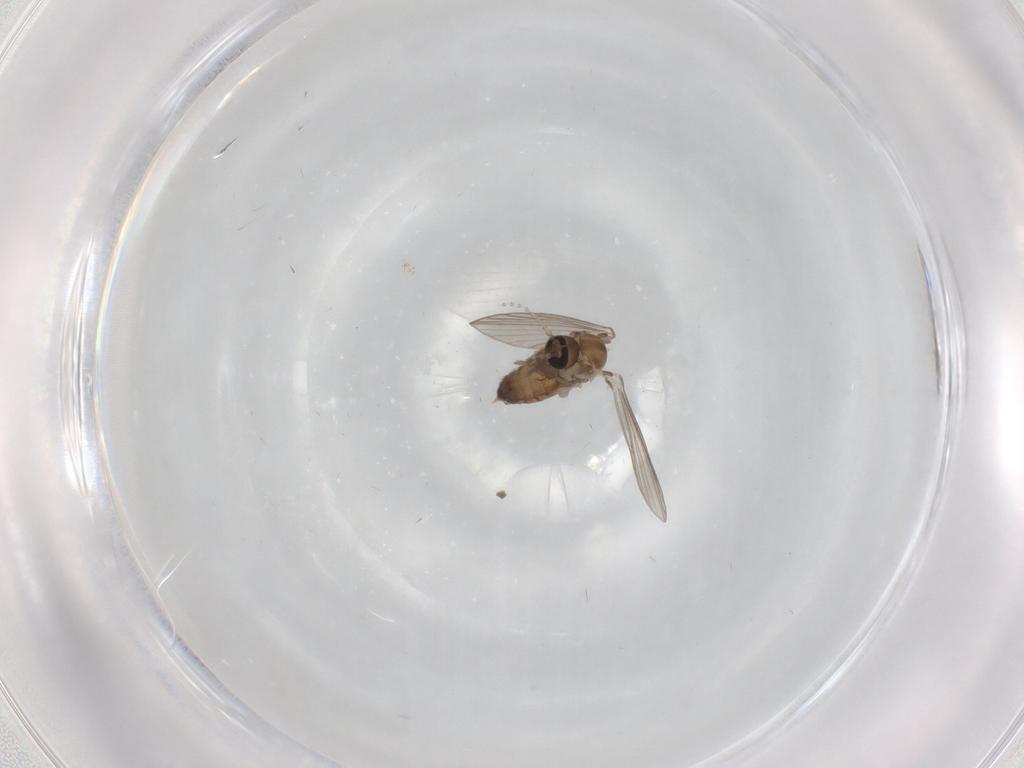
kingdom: Animalia
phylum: Arthropoda
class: Insecta
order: Diptera
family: Psychodidae
